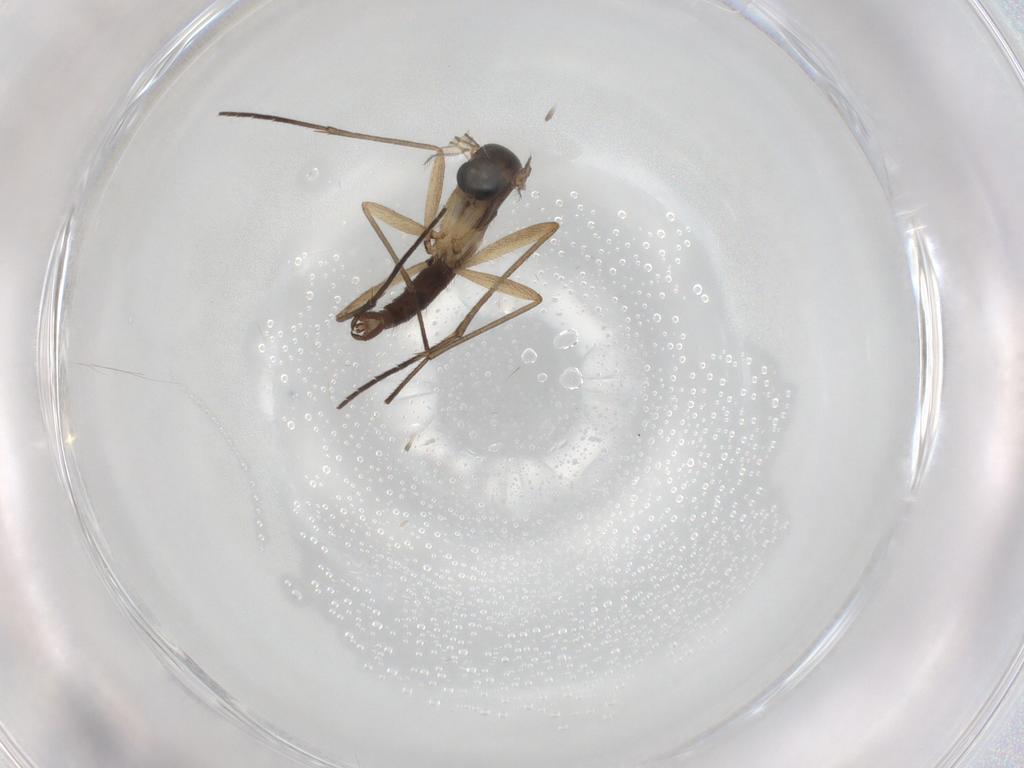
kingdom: Animalia
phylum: Arthropoda
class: Insecta
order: Diptera
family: Sciaridae
